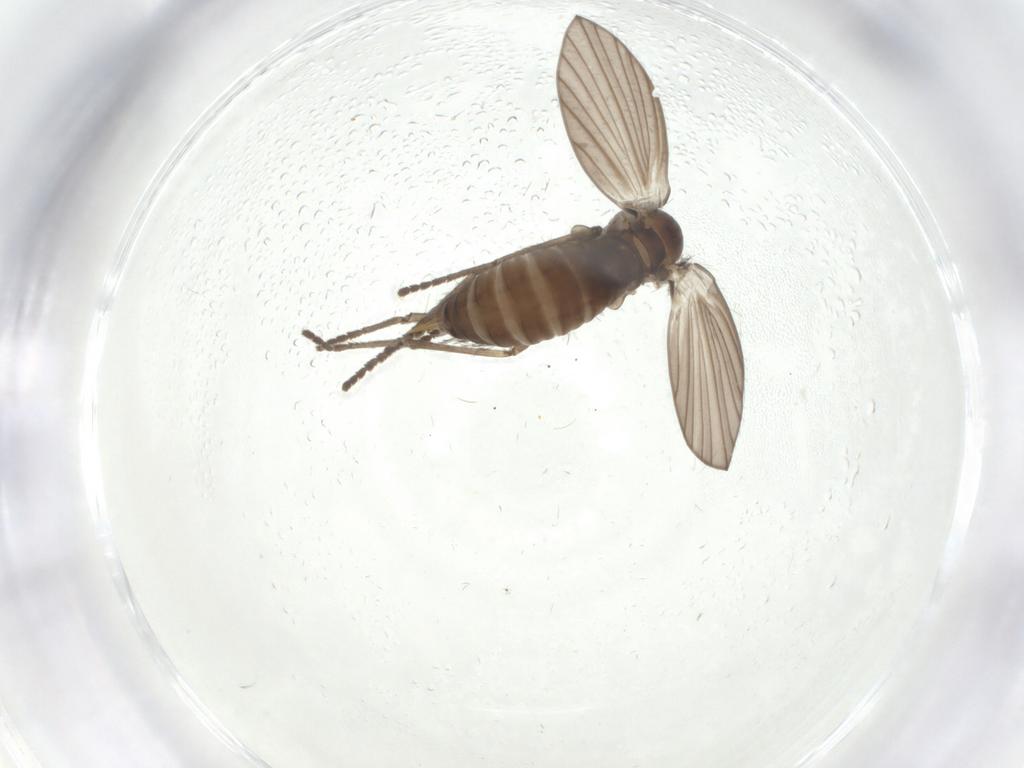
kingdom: Animalia
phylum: Arthropoda
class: Insecta
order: Diptera
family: Psychodidae
